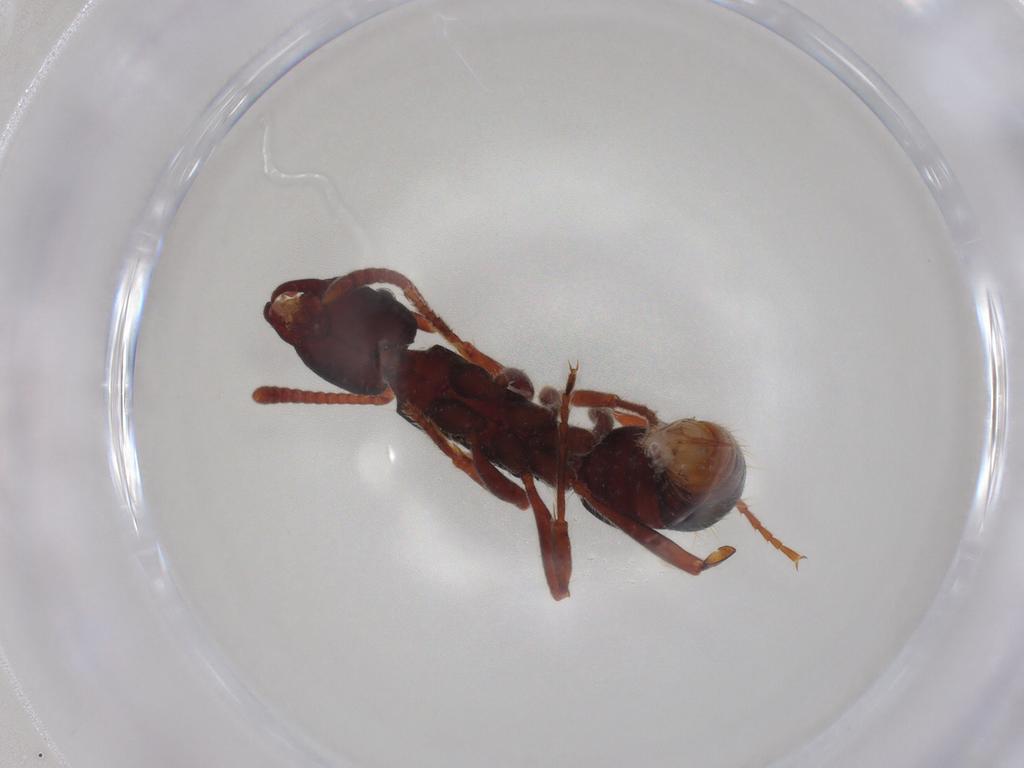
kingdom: Animalia
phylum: Arthropoda
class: Insecta
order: Hymenoptera
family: Formicidae
